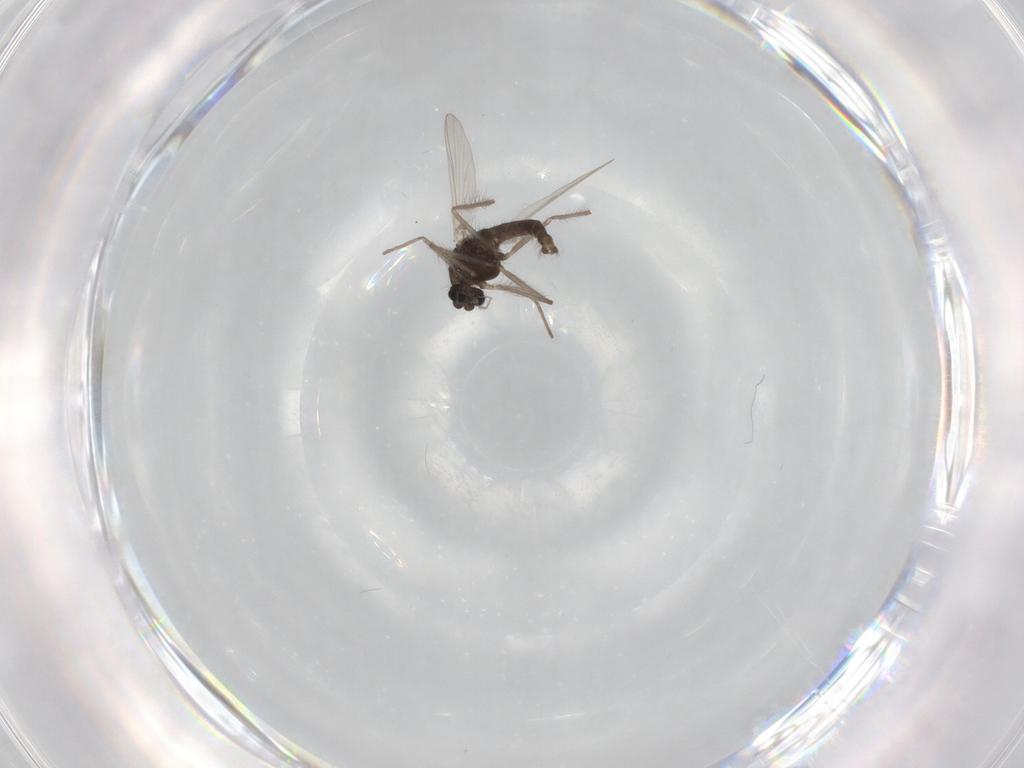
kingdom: Animalia
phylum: Arthropoda
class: Insecta
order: Diptera
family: Chironomidae
